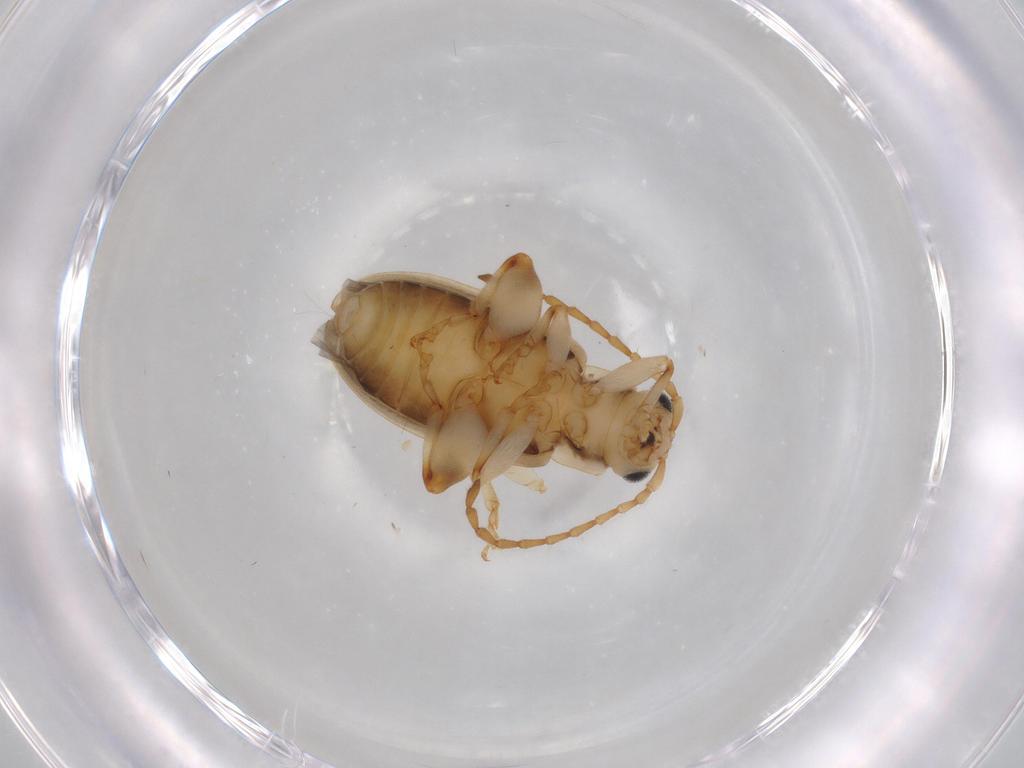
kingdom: Animalia
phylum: Arthropoda
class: Insecta
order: Coleoptera
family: Chrysomelidae
